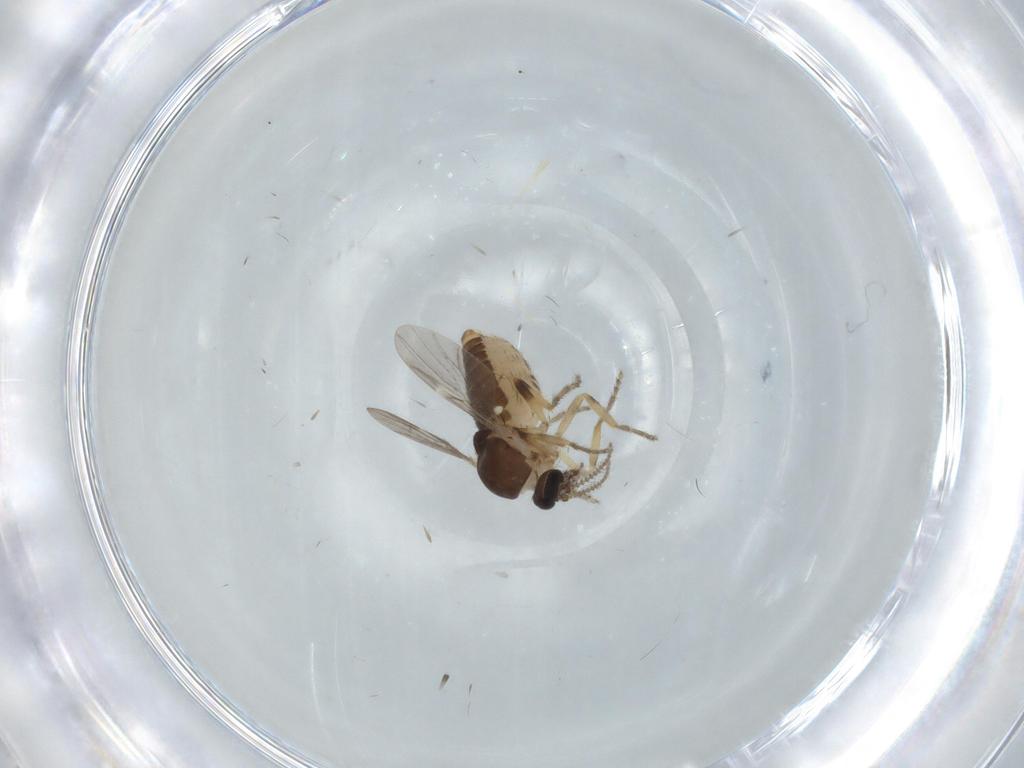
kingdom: Animalia
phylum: Arthropoda
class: Insecta
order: Diptera
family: Ceratopogonidae
